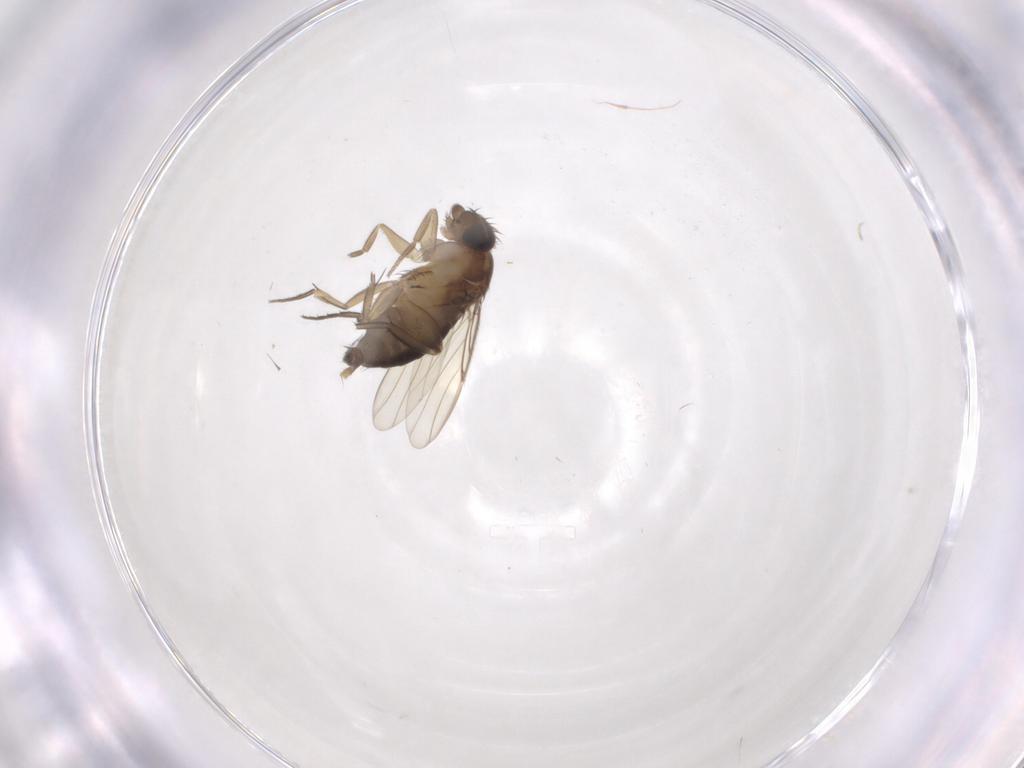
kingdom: Animalia
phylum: Arthropoda
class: Insecta
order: Diptera
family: Phoridae
